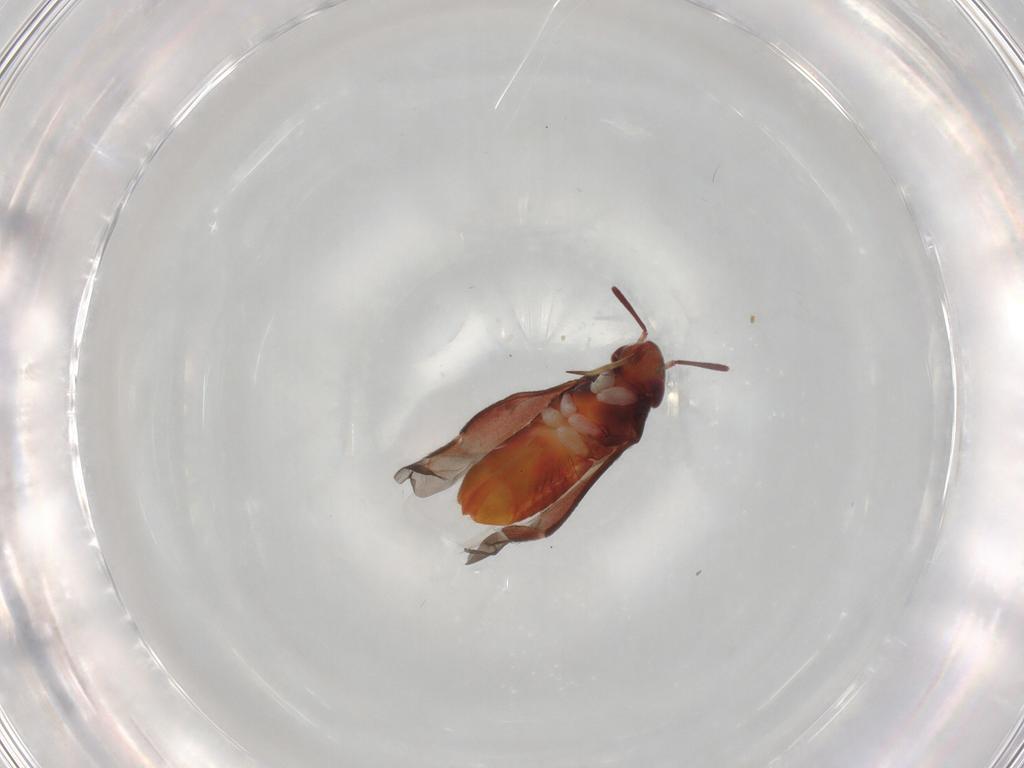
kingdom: Animalia
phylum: Arthropoda
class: Insecta
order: Hemiptera
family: Miridae
